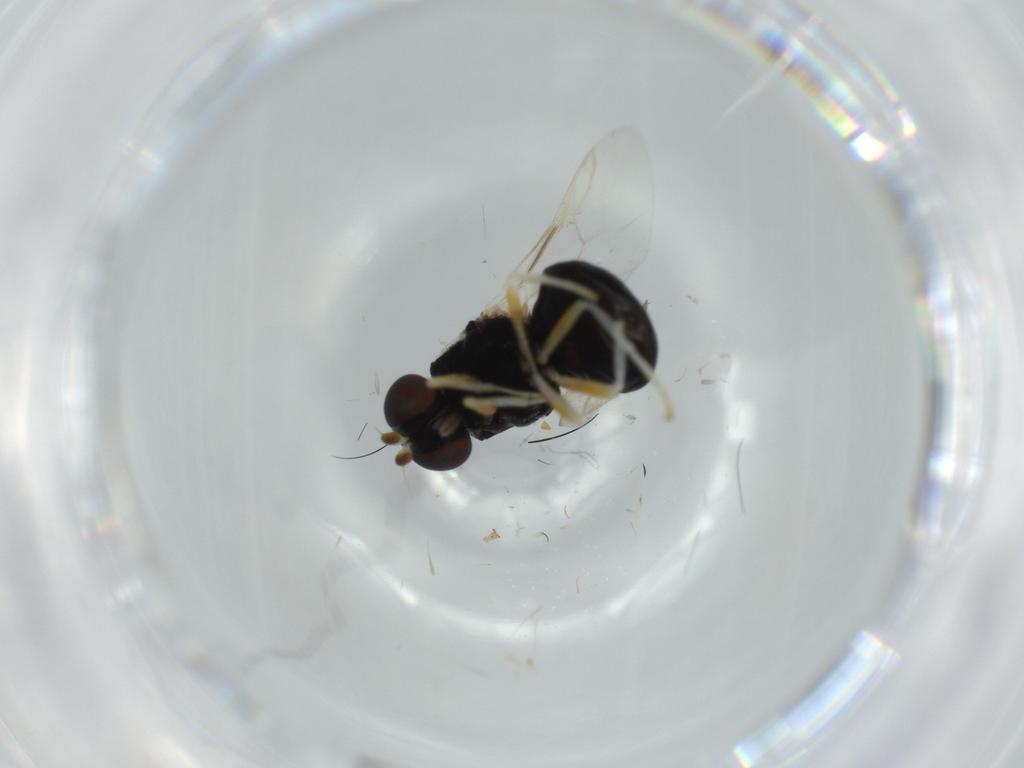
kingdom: Animalia
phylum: Arthropoda
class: Insecta
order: Diptera
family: Stratiomyidae
